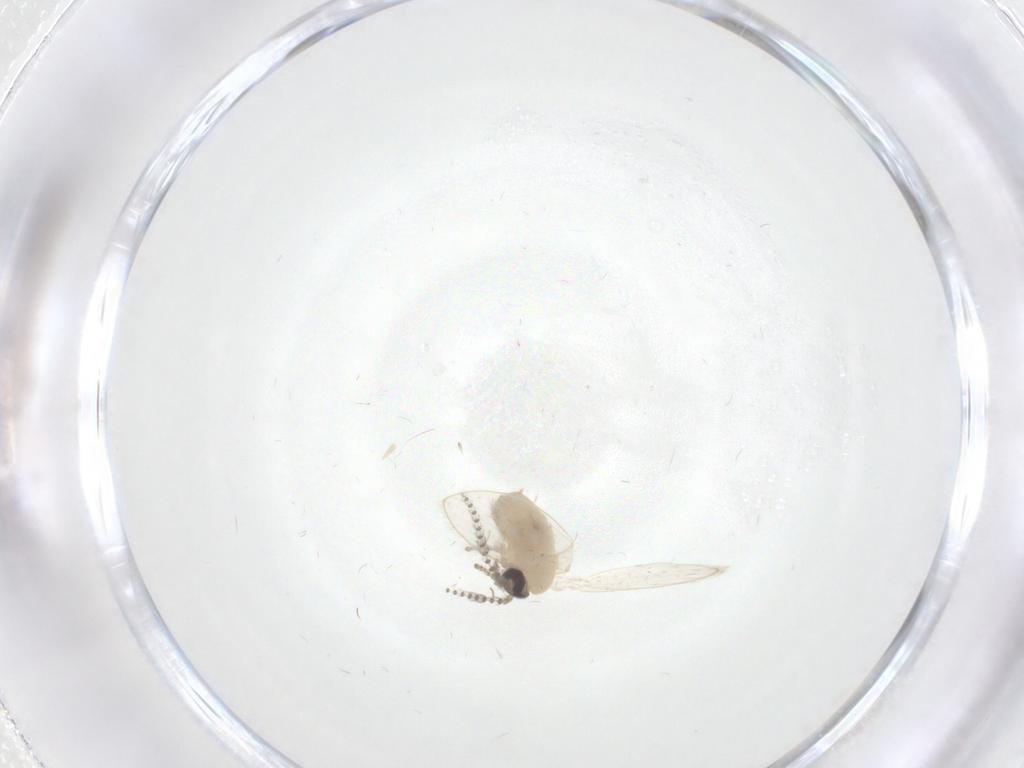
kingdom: Animalia
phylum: Arthropoda
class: Insecta
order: Diptera
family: Psychodidae
